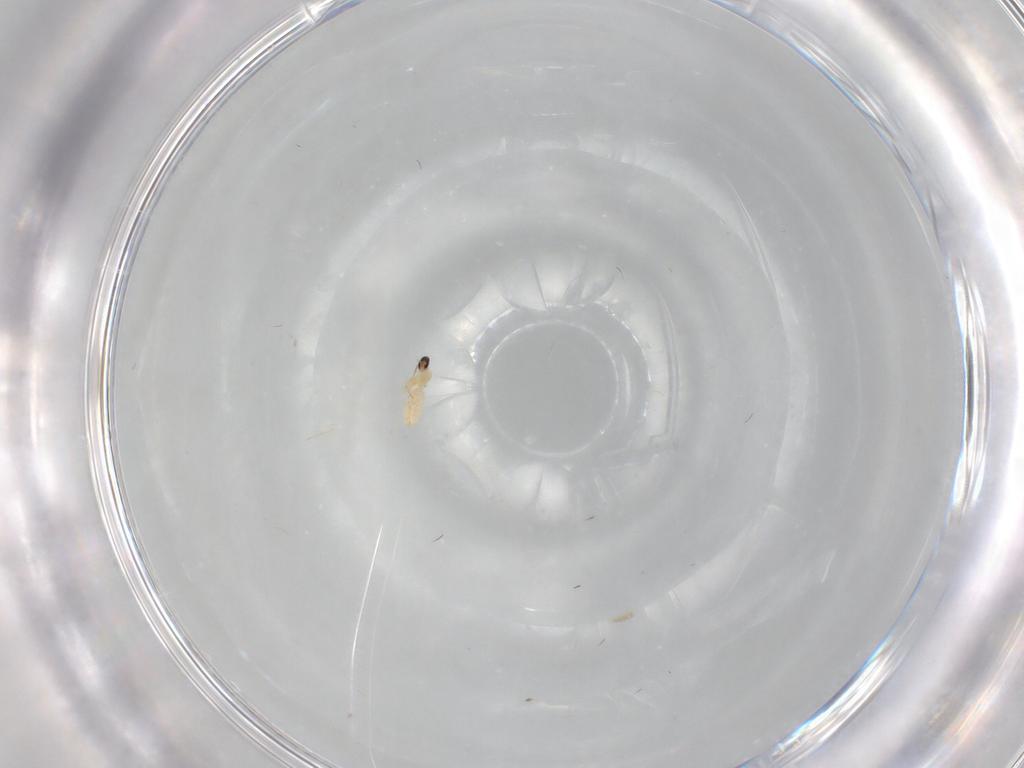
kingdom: Animalia
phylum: Arthropoda
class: Insecta
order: Diptera
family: Cecidomyiidae
